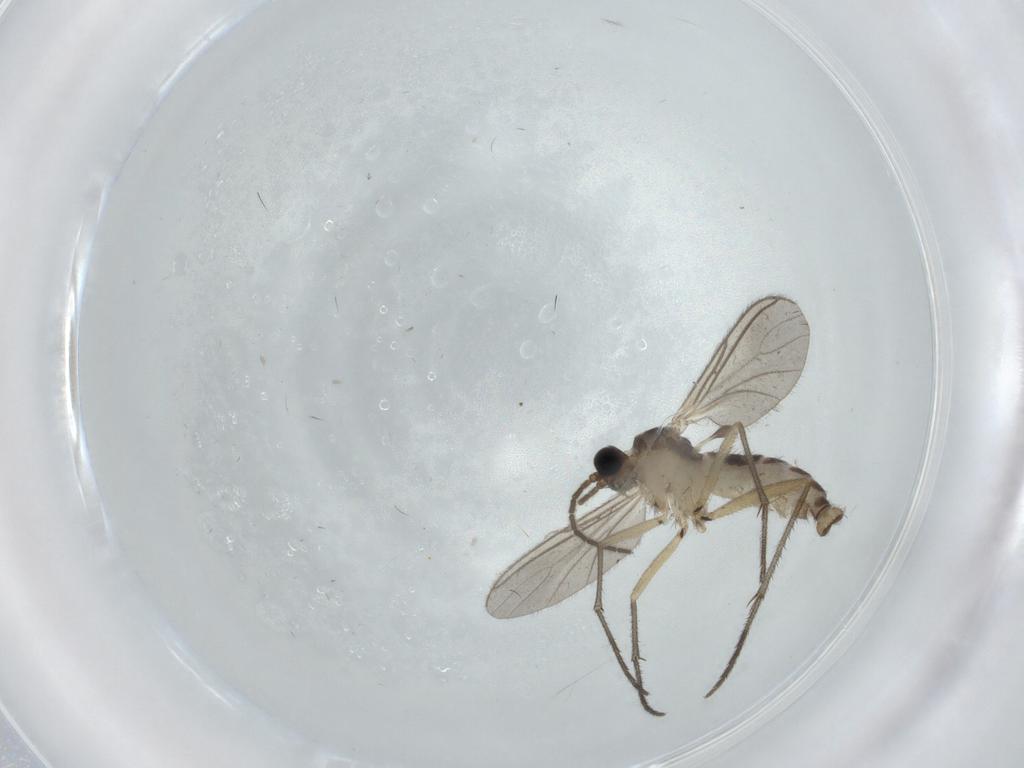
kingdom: Animalia
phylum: Arthropoda
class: Insecta
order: Diptera
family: Sciaridae
